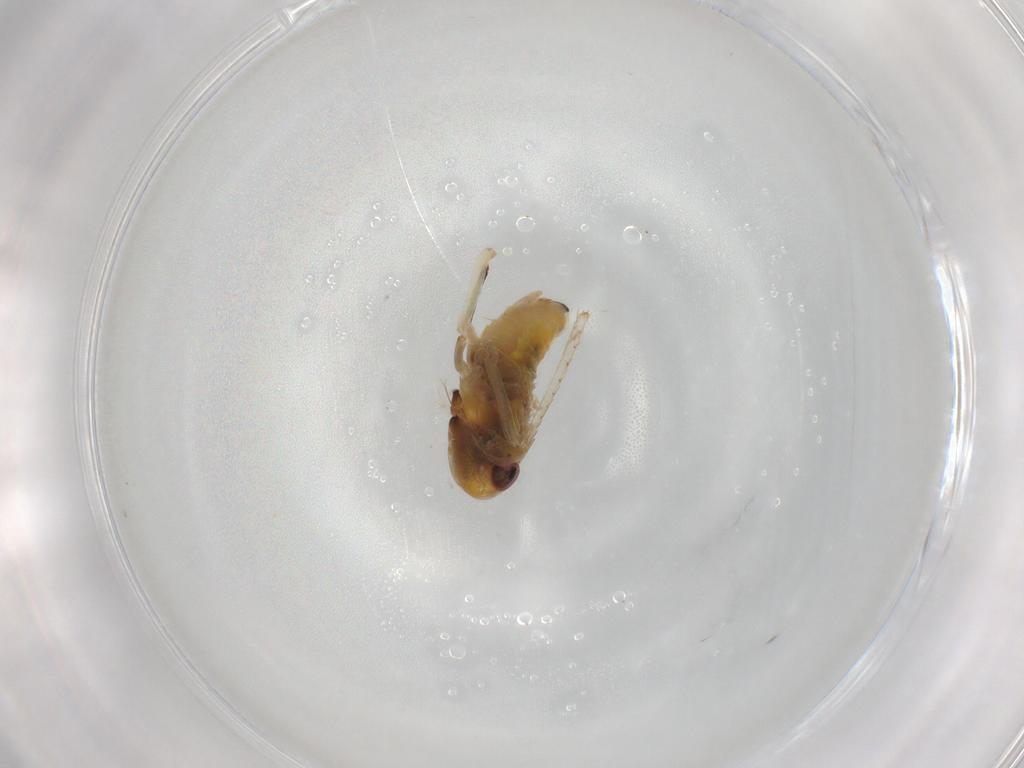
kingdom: Animalia
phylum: Arthropoda
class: Insecta
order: Hemiptera
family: Cicadellidae
